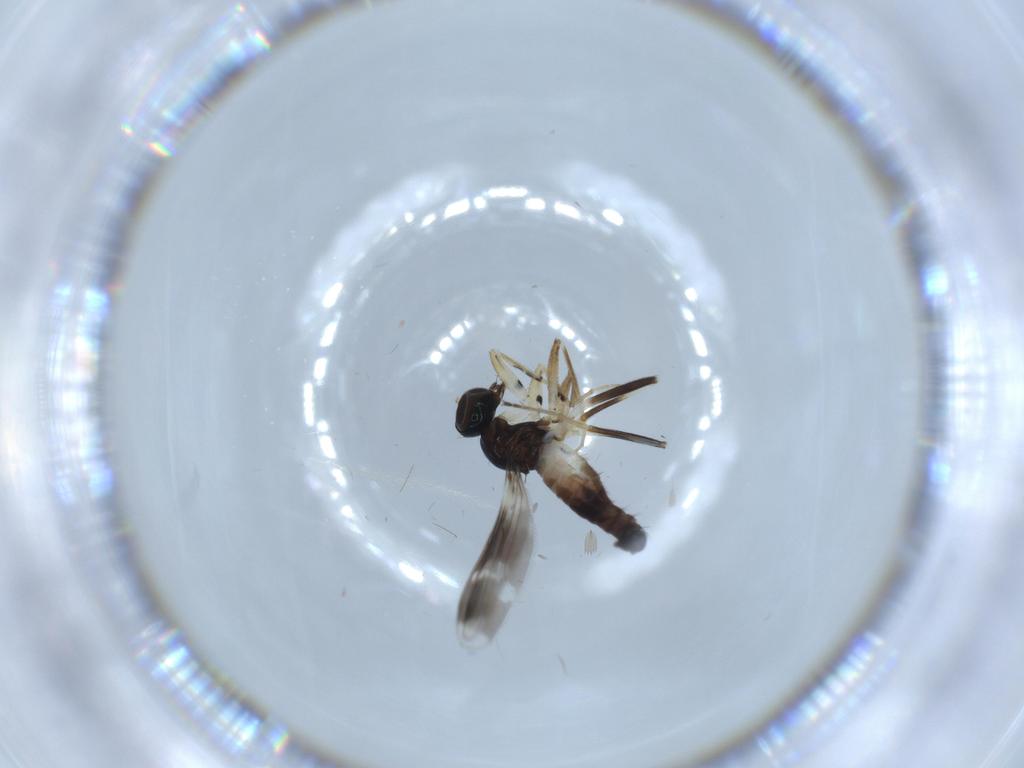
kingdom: Animalia
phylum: Arthropoda
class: Insecta
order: Diptera
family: Hybotidae
